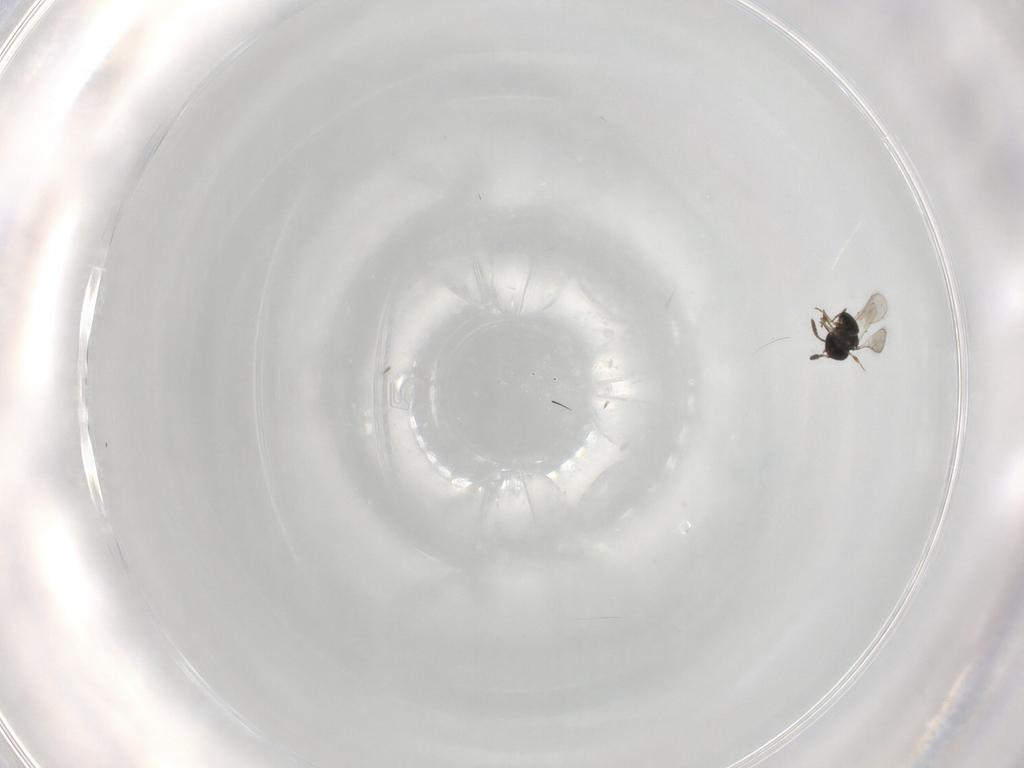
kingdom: Animalia
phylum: Arthropoda
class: Insecta
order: Hymenoptera
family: Scelionidae
